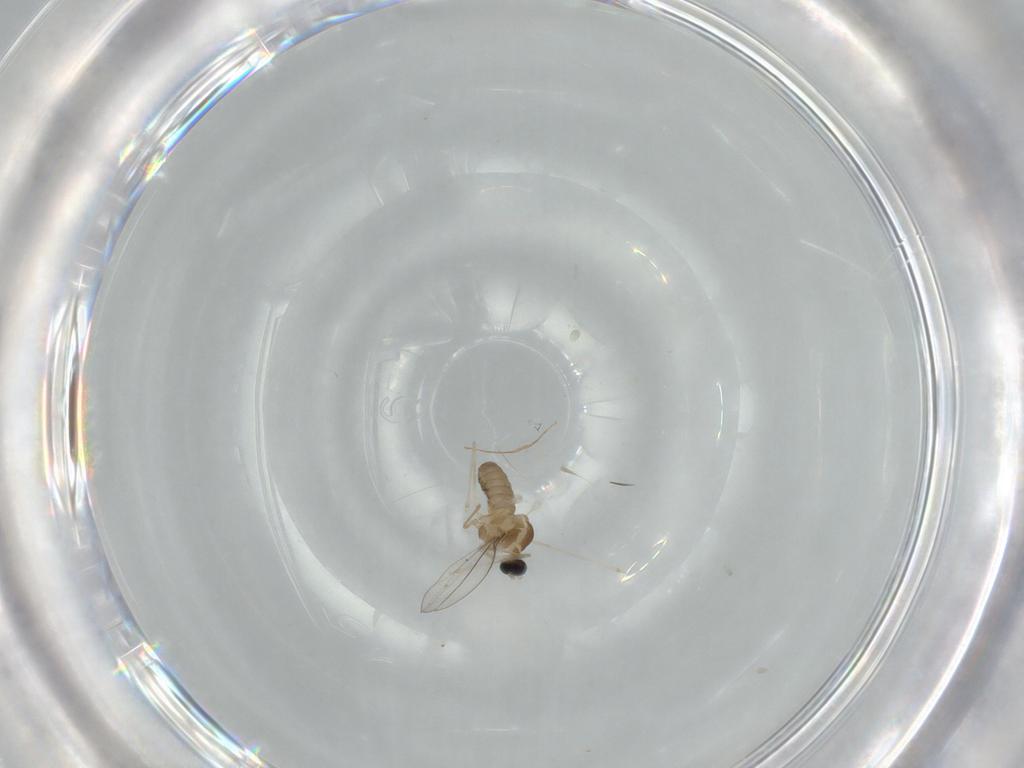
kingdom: Animalia
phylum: Arthropoda
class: Insecta
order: Diptera
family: Cecidomyiidae
